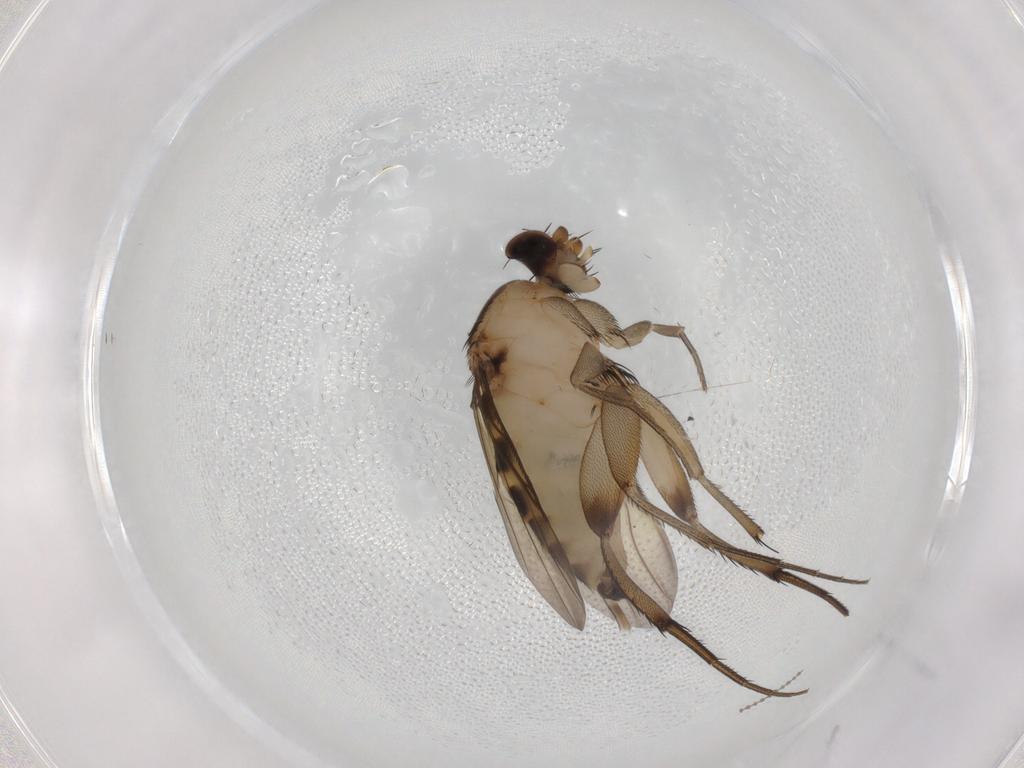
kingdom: Animalia
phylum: Arthropoda
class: Insecta
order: Diptera
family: Phoridae
